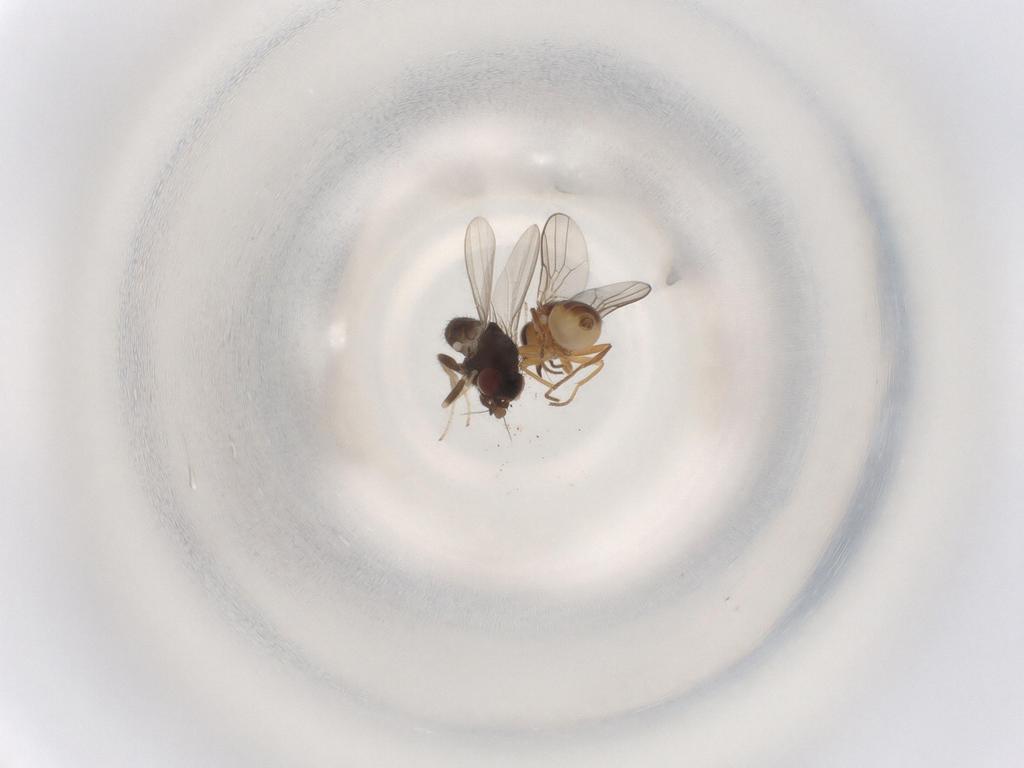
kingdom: Animalia
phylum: Arthropoda
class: Insecta
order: Diptera
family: Chloropidae
